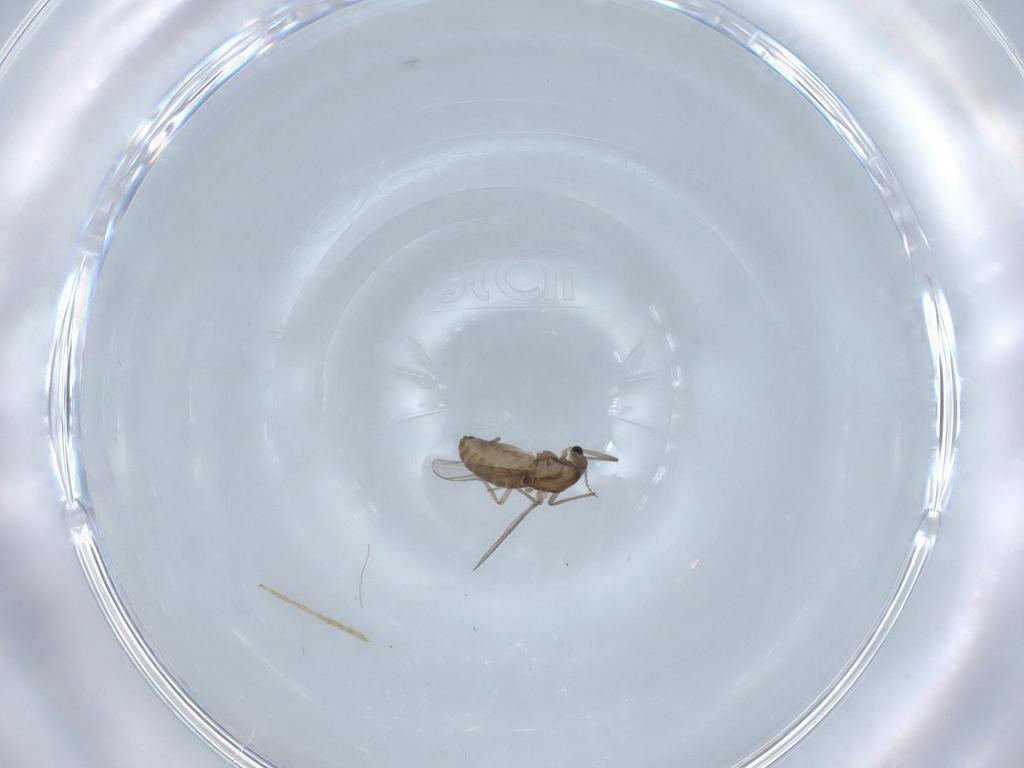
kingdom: Animalia
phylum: Arthropoda
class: Insecta
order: Diptera
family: Chironomidae
